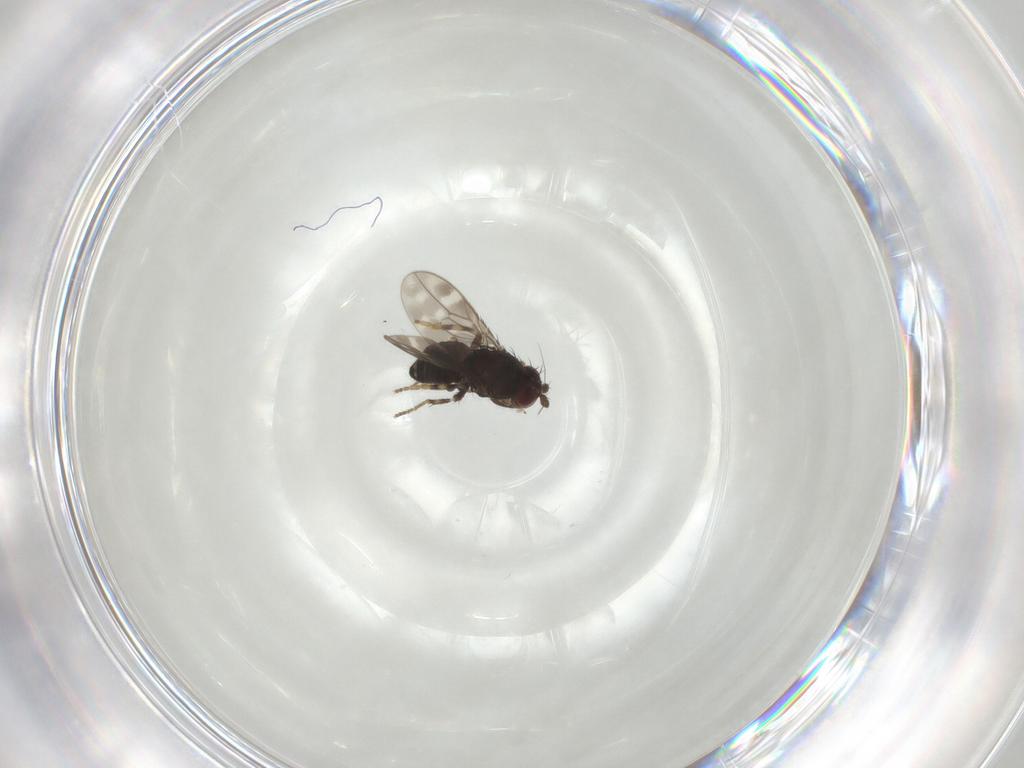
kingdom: Animalia
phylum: Arthropoda
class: Insecta
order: Diptera
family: Sphaeroceridae
